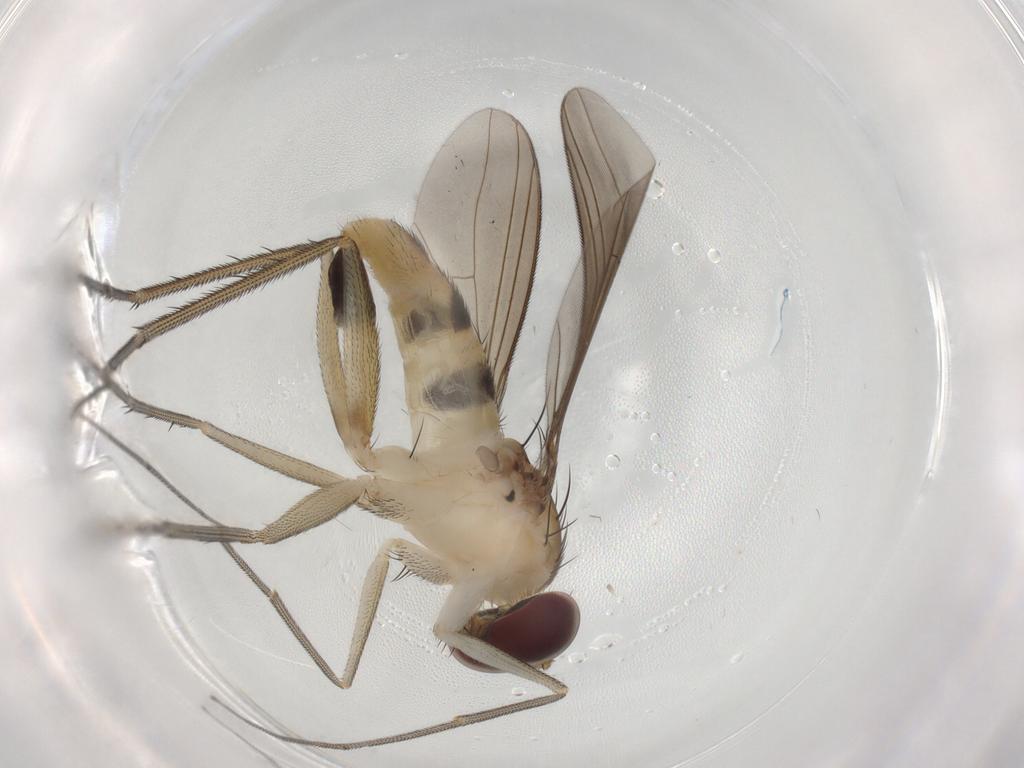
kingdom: Animalia
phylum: Arthropoda
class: Insecta
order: Diptera
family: Dolichopodidae
